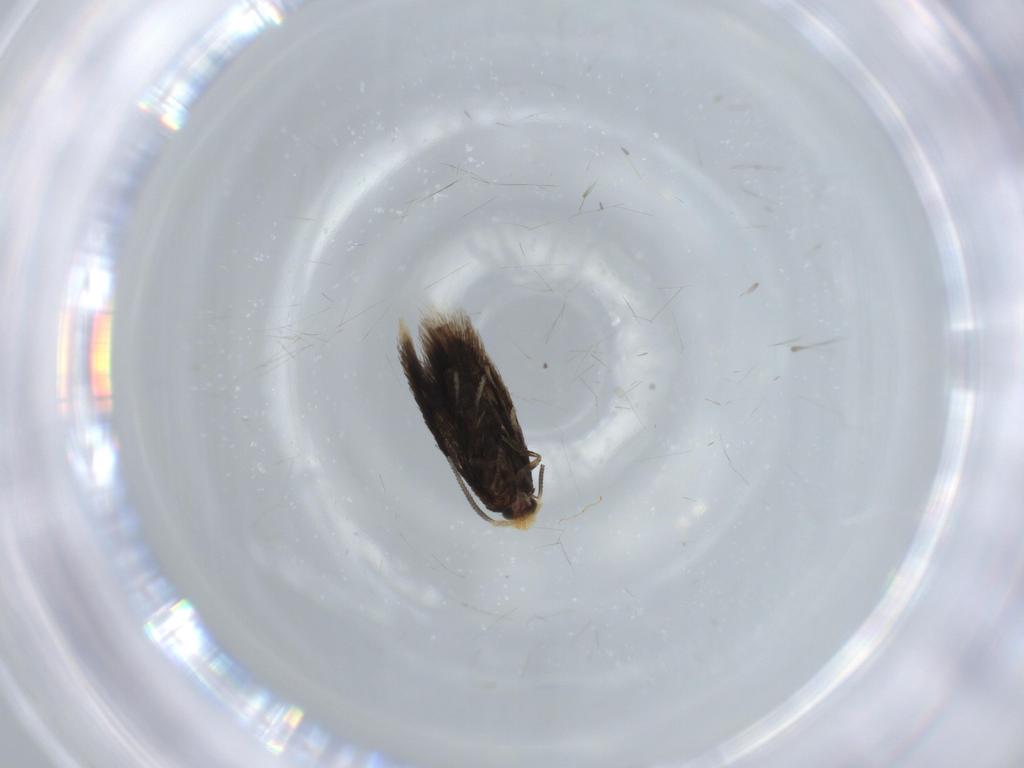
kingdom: Animalia
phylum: Arthropoda
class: Insecta
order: Lepidoptera
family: Nepticulidae
